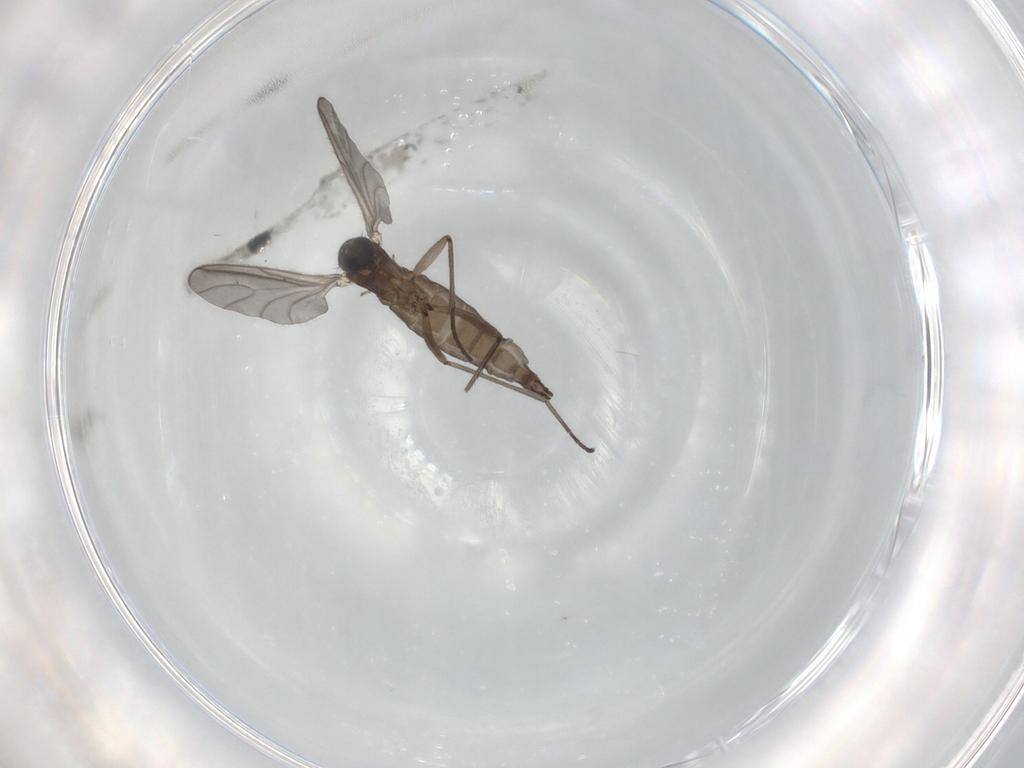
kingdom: Animalia
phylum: Arthropoda
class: Insecta
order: Diptera
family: Sciaridae
